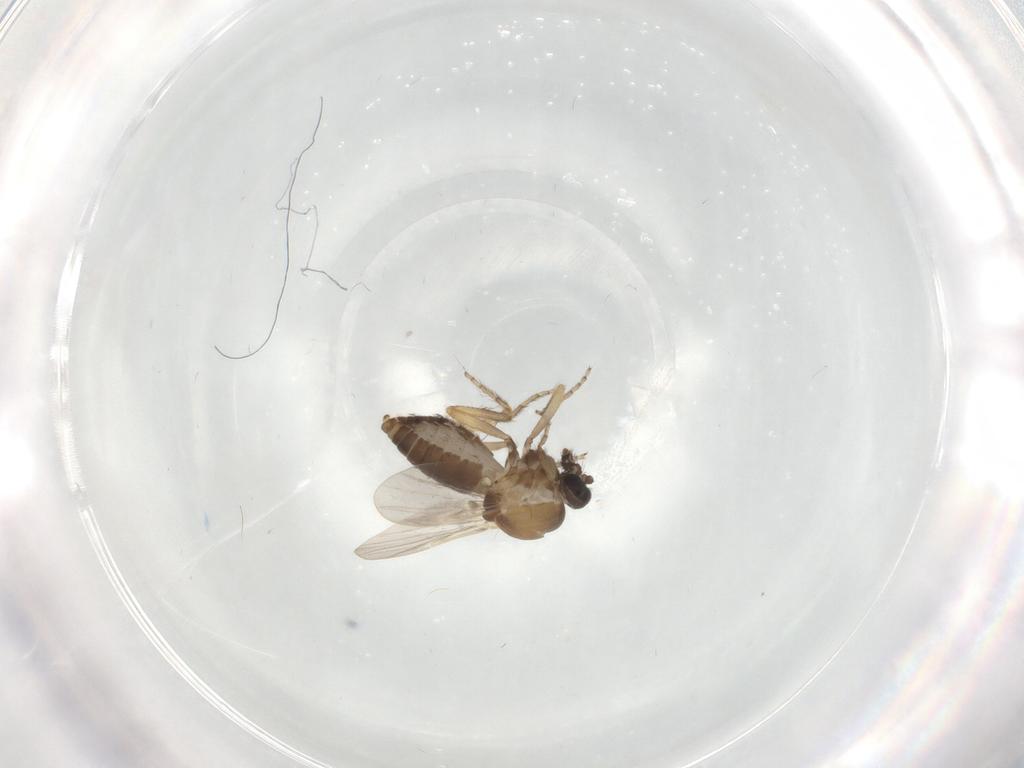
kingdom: Animalia
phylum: Arthropoda
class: Insecta
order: Diptera
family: Ceratopogonidae
